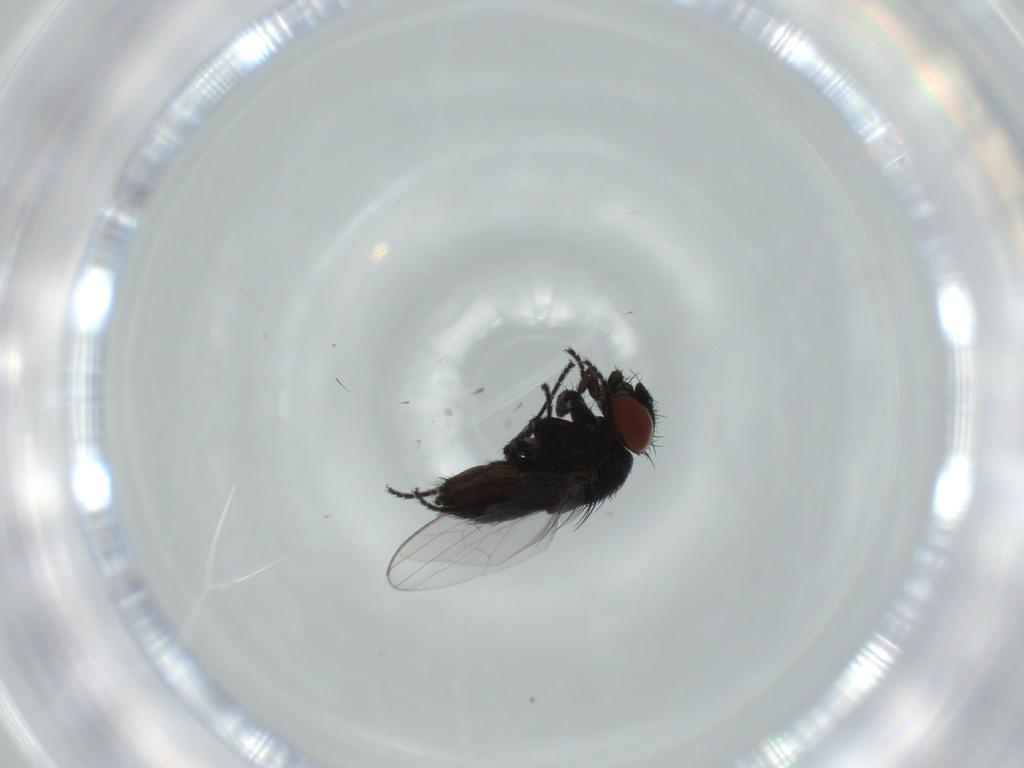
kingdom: Animalia
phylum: Arthropoda
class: Insecta
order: Diptera
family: Milichiidae
